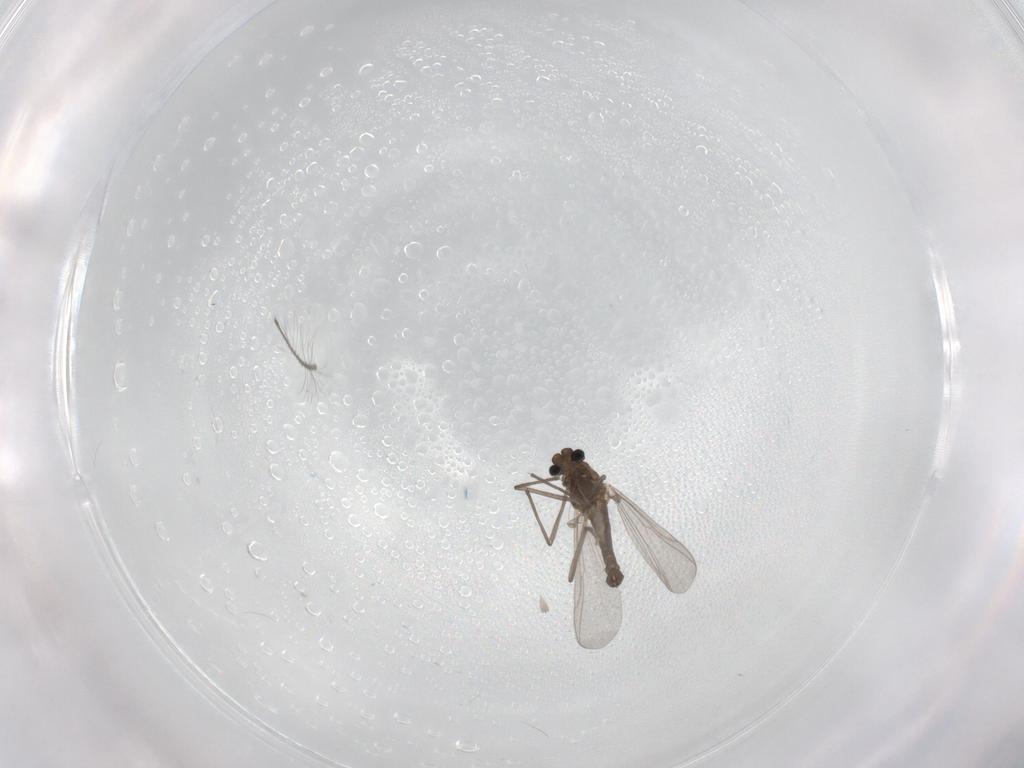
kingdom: Animalia
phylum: Arthropoda
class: Insecta
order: Diptera
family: Chironomidae
